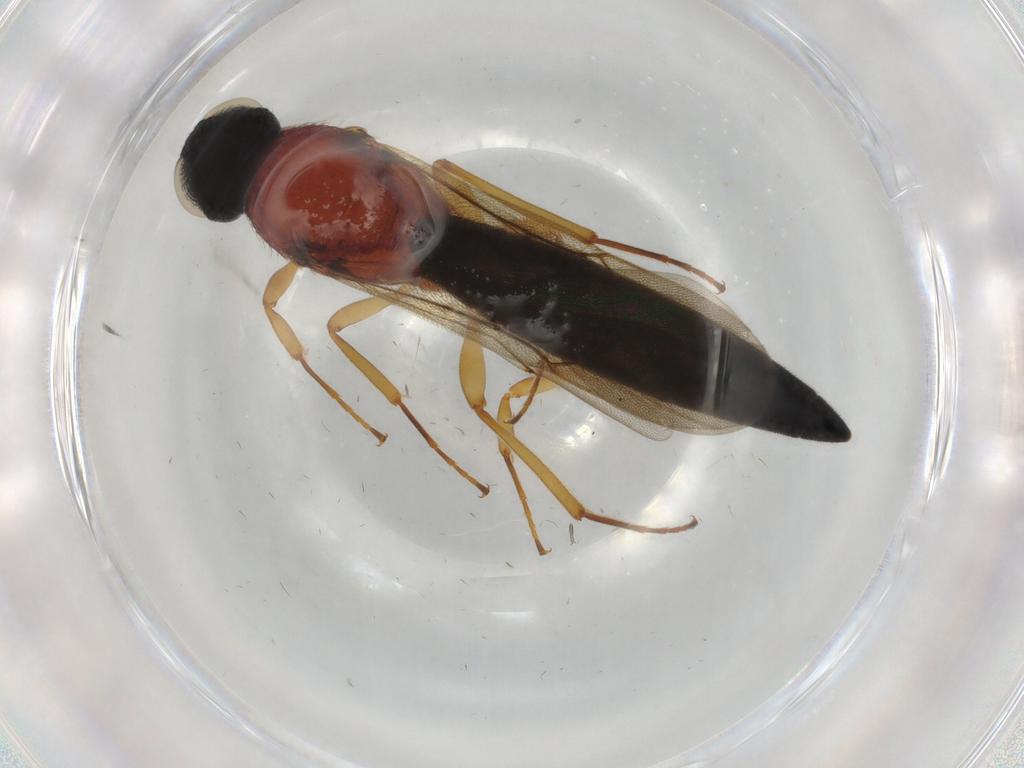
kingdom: Animalia
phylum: Arthropoda
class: Insecta
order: Hymenoptera
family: Scelionidae
